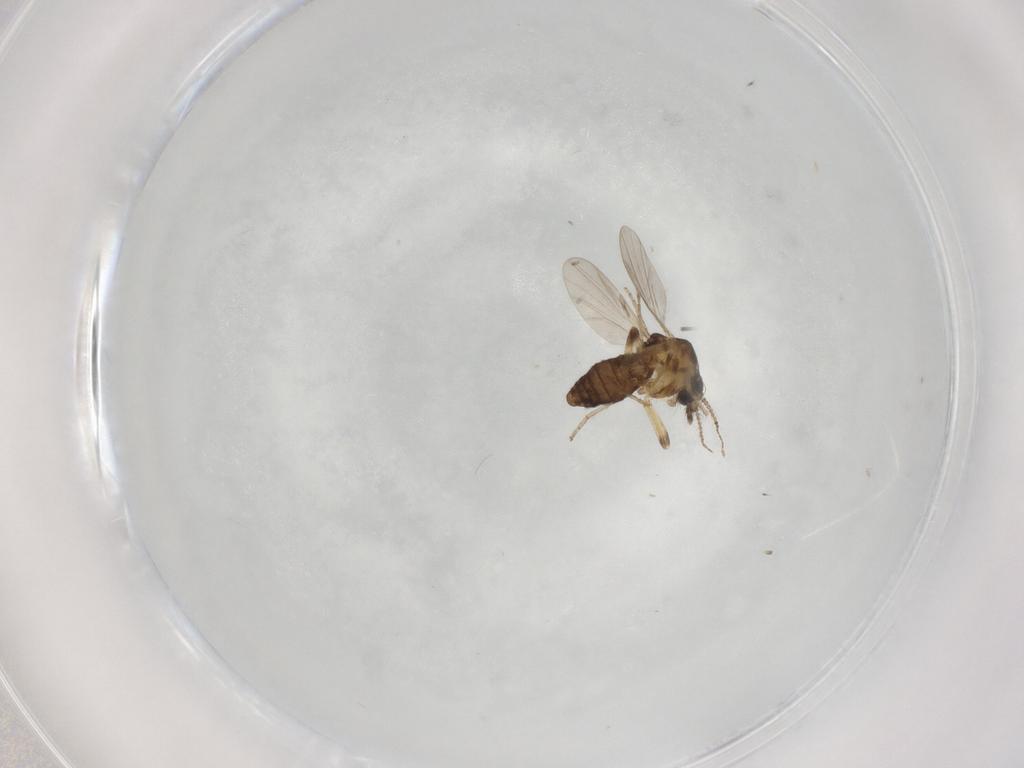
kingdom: Animalia
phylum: Arthropoda
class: Insecta
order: Diptera
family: Ceratopogonidae
